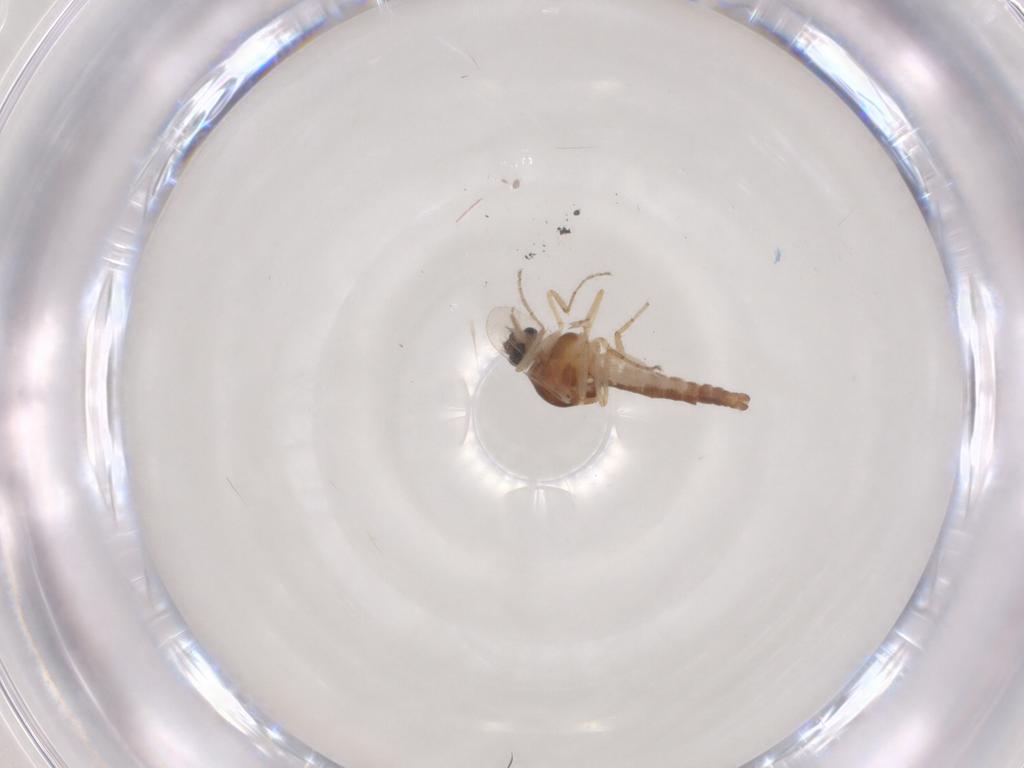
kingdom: Animalia
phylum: Arthropoda
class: Insecta
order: Diptera
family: Ceratopogonidae
